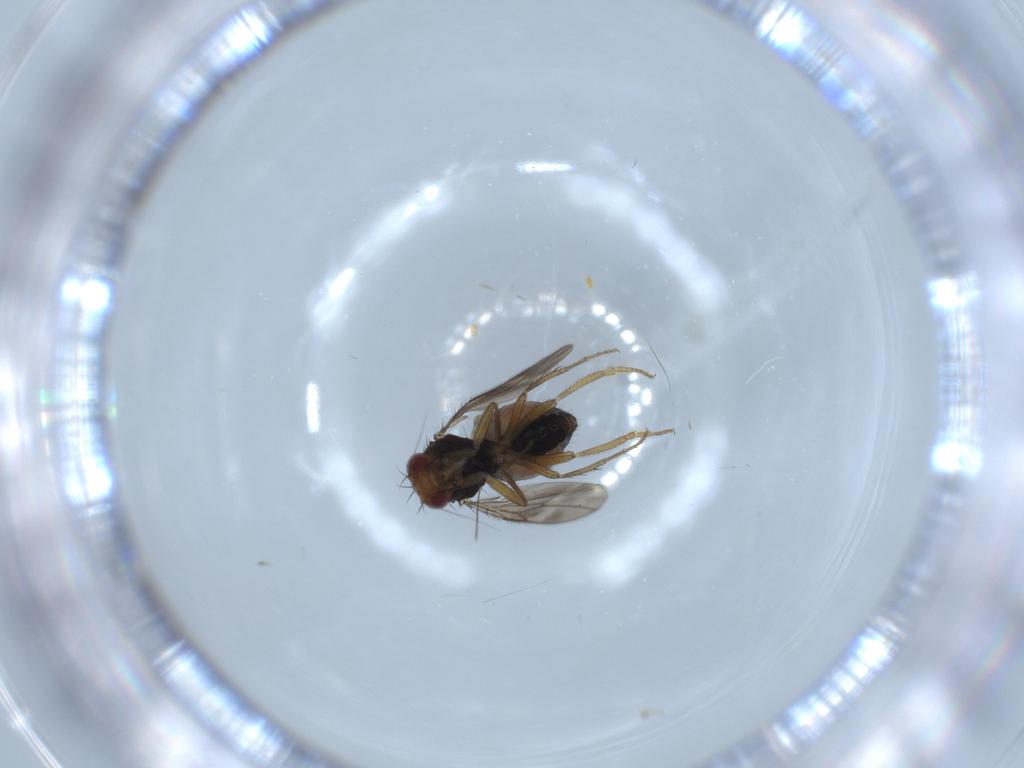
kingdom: Animalia
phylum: Arthropoda
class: Insecta
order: Diptera
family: Sphaeroceridae
